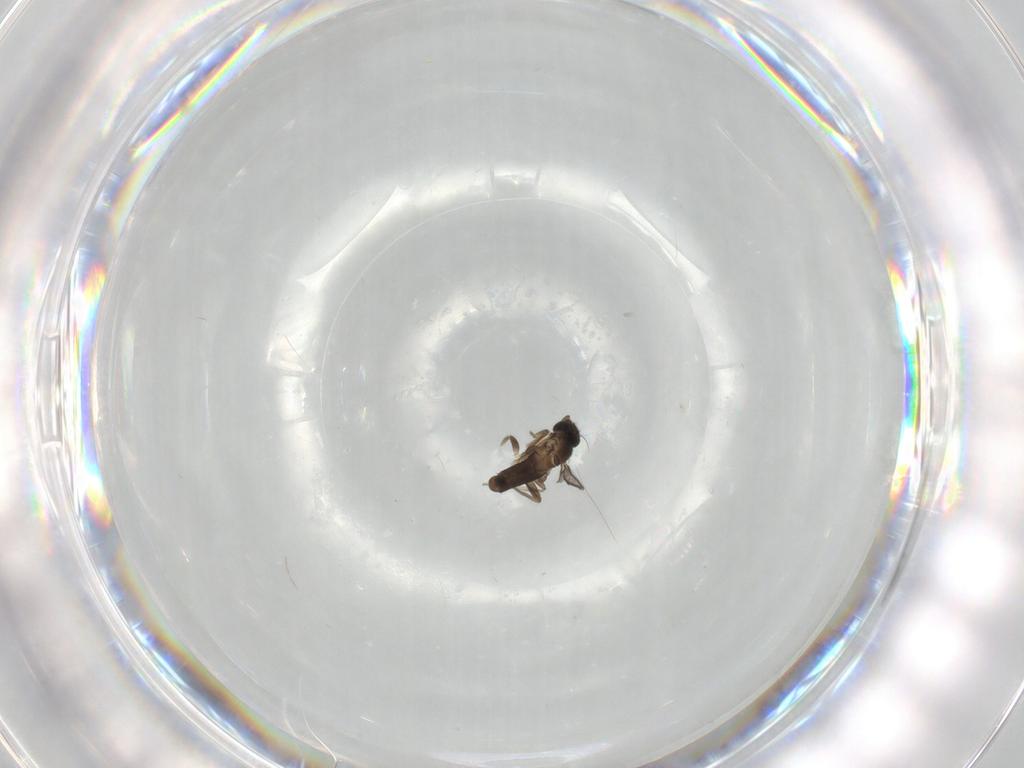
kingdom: Animalia
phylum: Arthropoda
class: Insecta
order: Diptera
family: Cecidomyiidae
